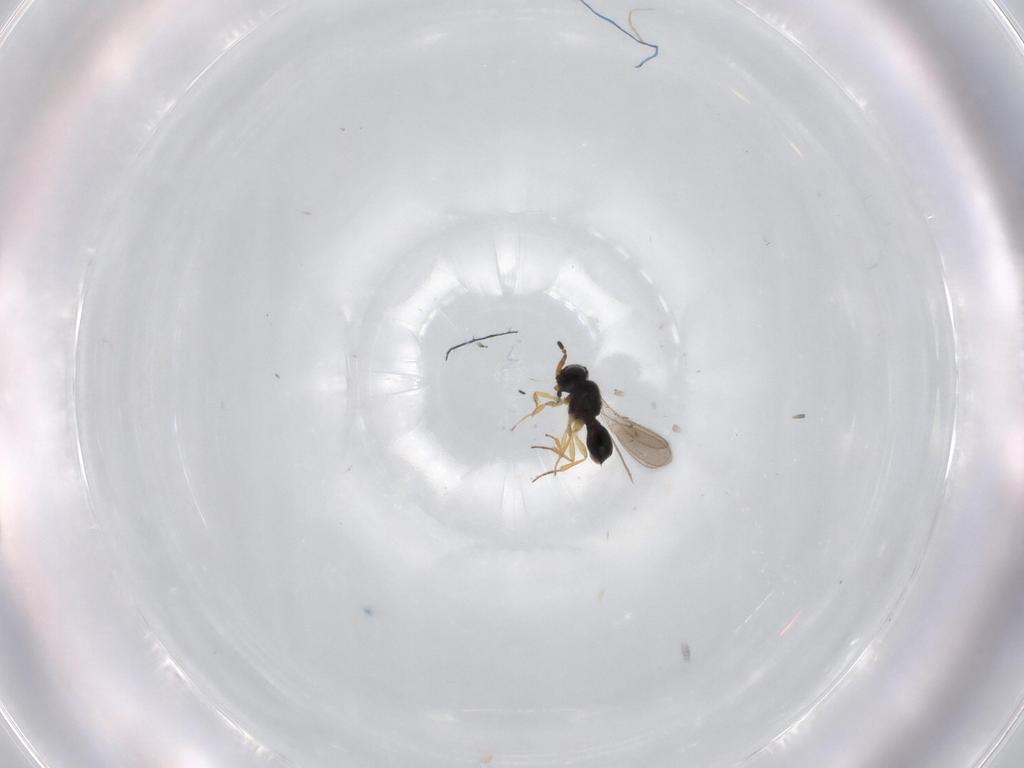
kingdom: Animalia
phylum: Arthropoda
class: Insecta
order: Hymenoptera
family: Scelionidae
